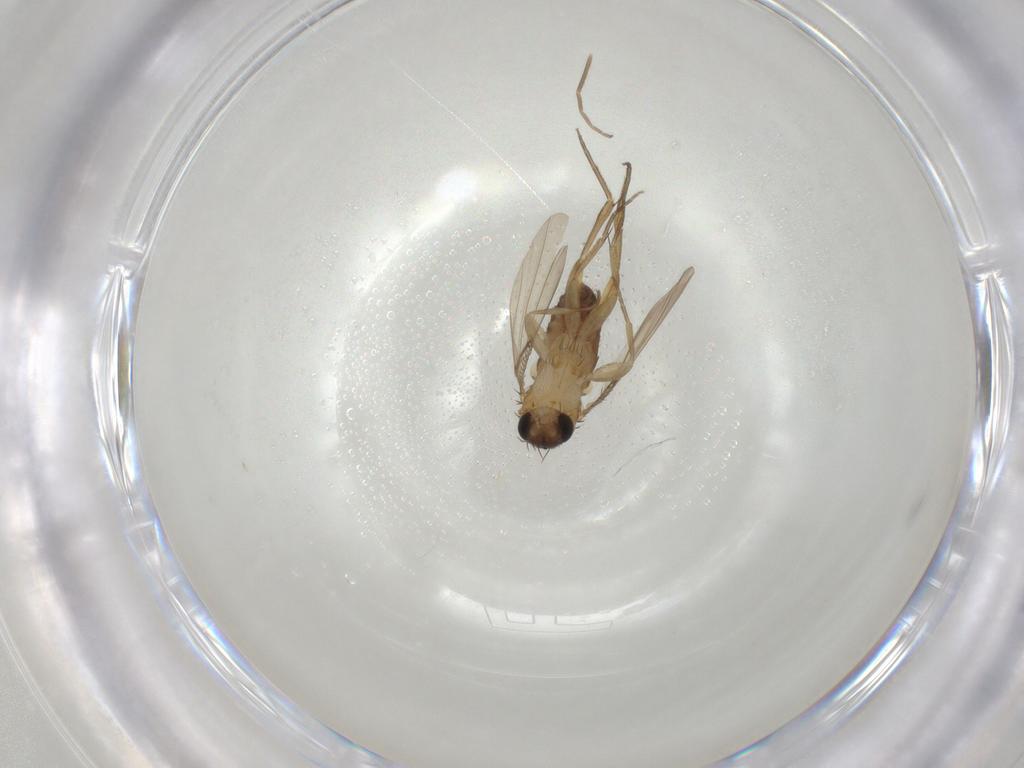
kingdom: Animalia
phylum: Arthropoda
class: Insecta
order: Diptera
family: Phoridae
